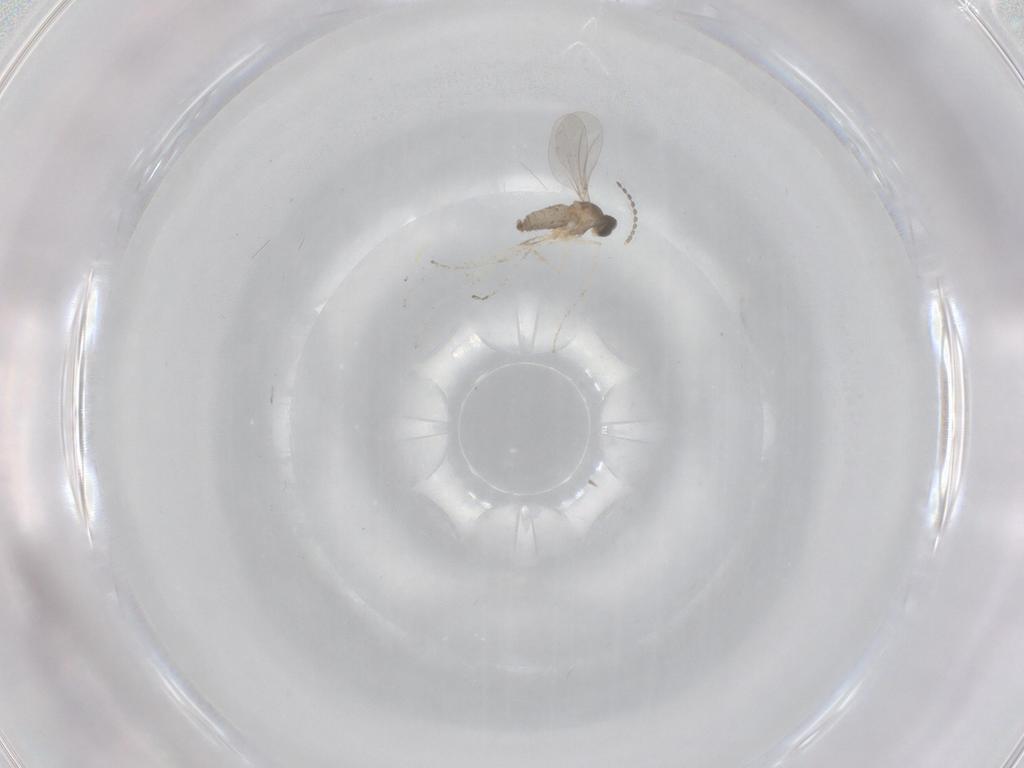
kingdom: Animalia
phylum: Arthropoda
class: Insecta
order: Diptera
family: Cecidomyiidae
